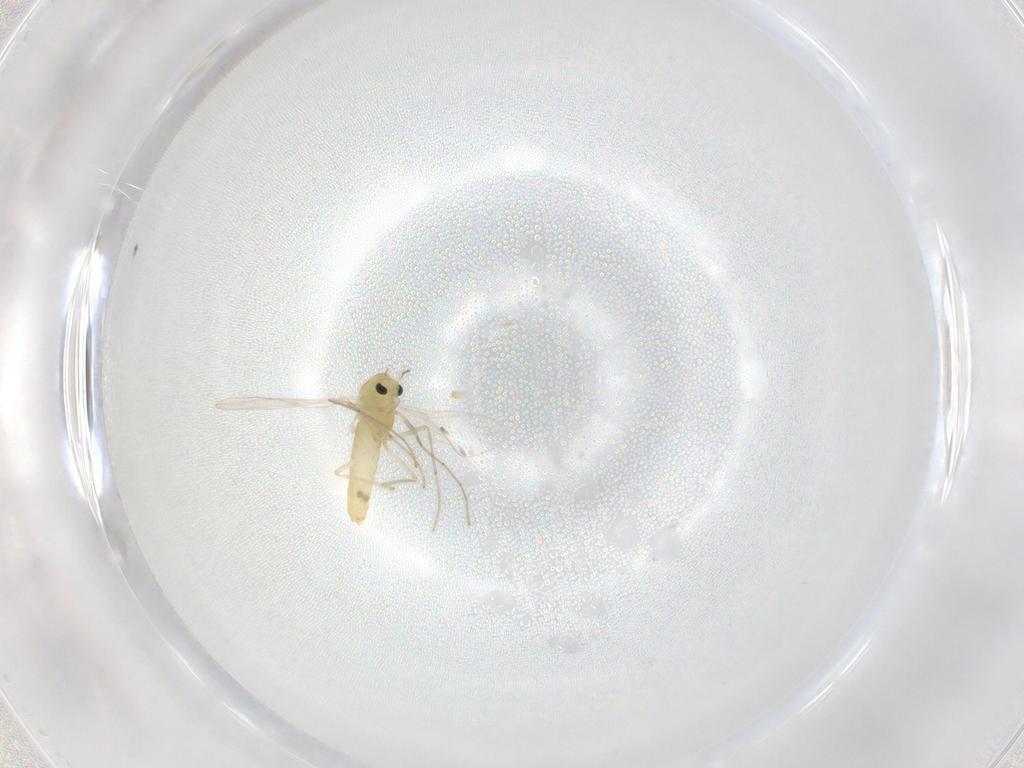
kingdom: Animalia
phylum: Arthropoda
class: Insecta
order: Diptera
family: Chironomidae
